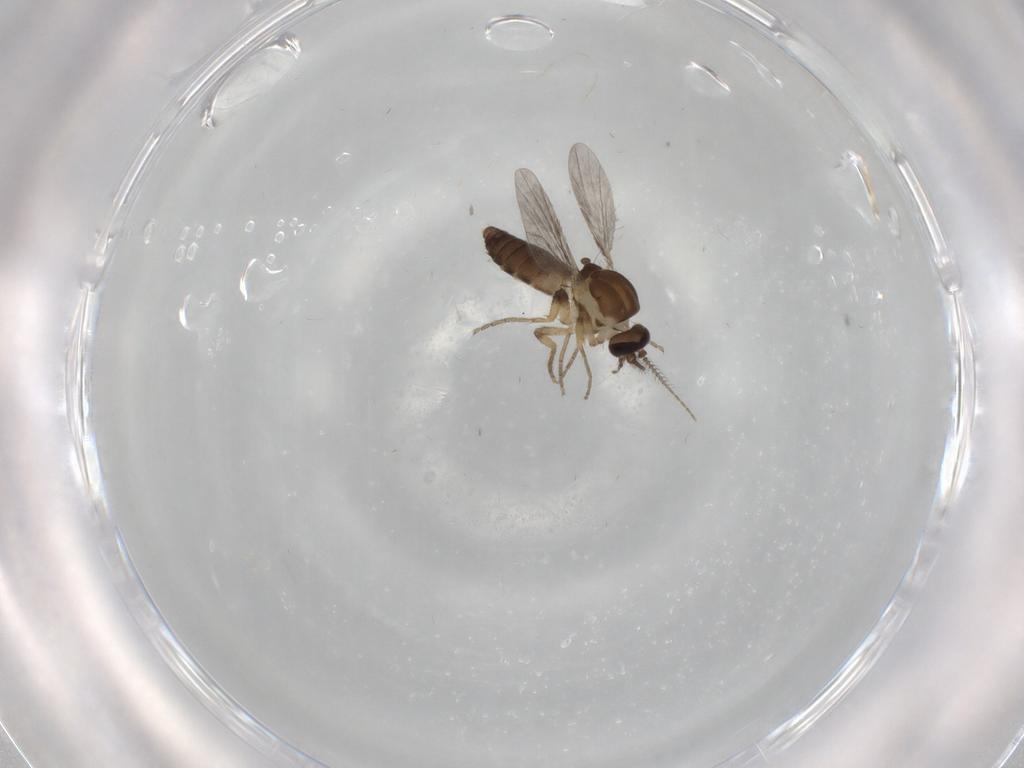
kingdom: Animalia
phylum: Arthropoda
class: Insecta
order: Diptera
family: Ceratopogonidae
